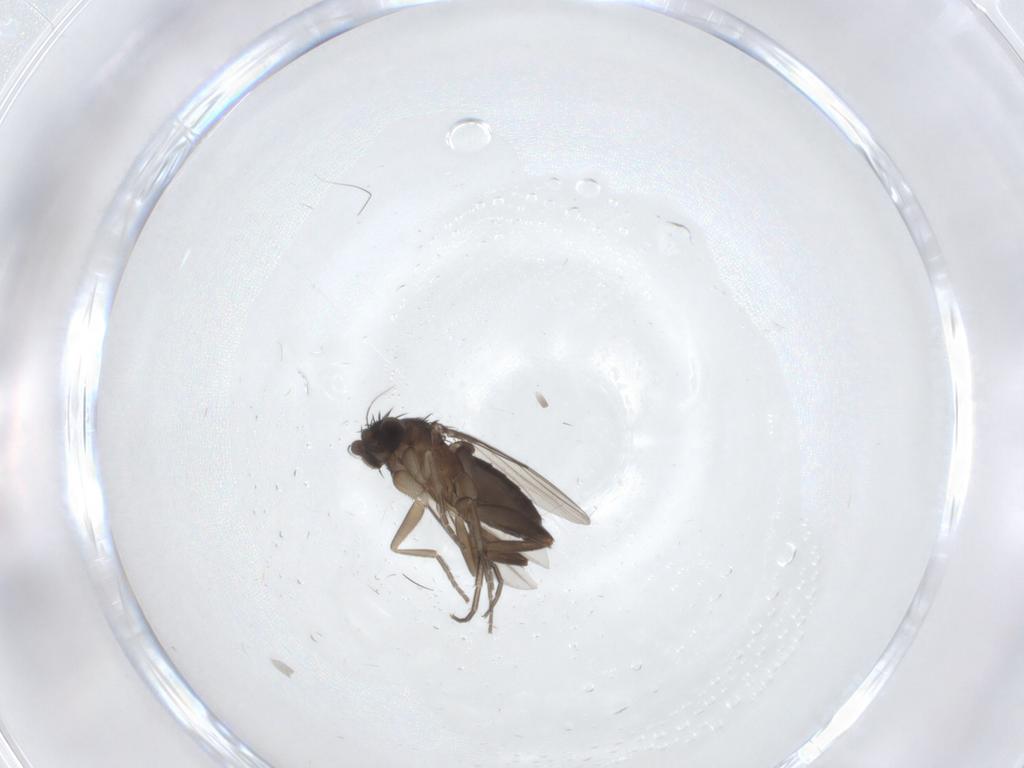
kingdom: Animalia
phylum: Arthropoda
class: Insecta
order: Diptera
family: Phoridae
